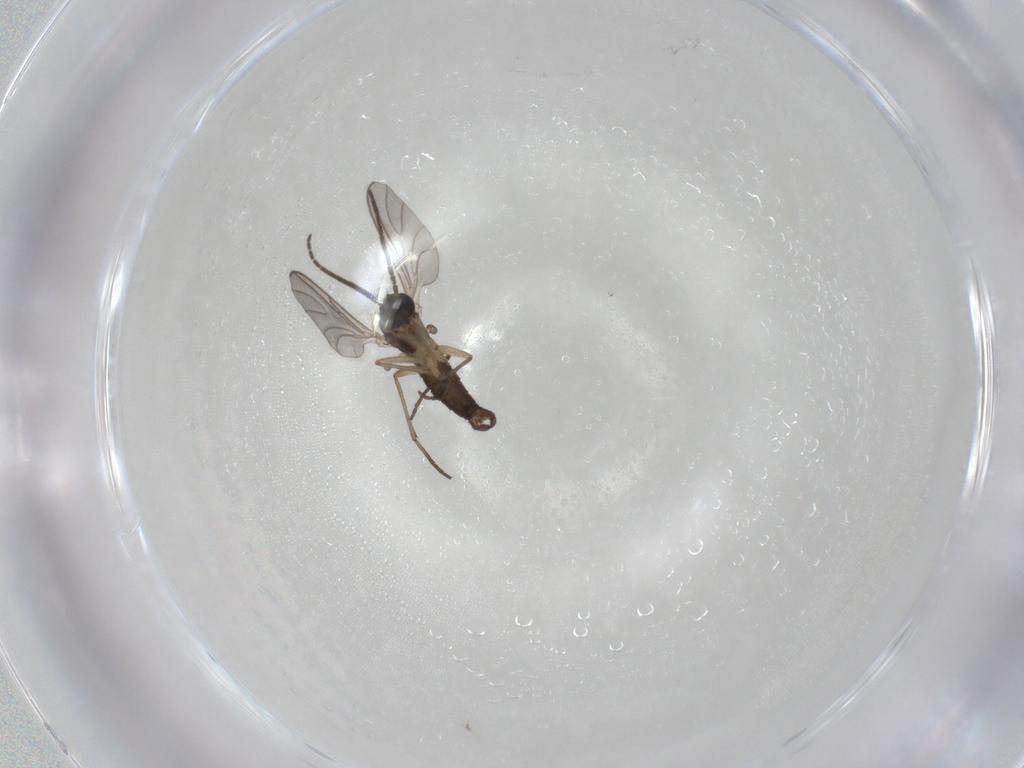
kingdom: Animalia
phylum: Arthropoda
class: Insecta
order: Diptera
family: Sciaridae
